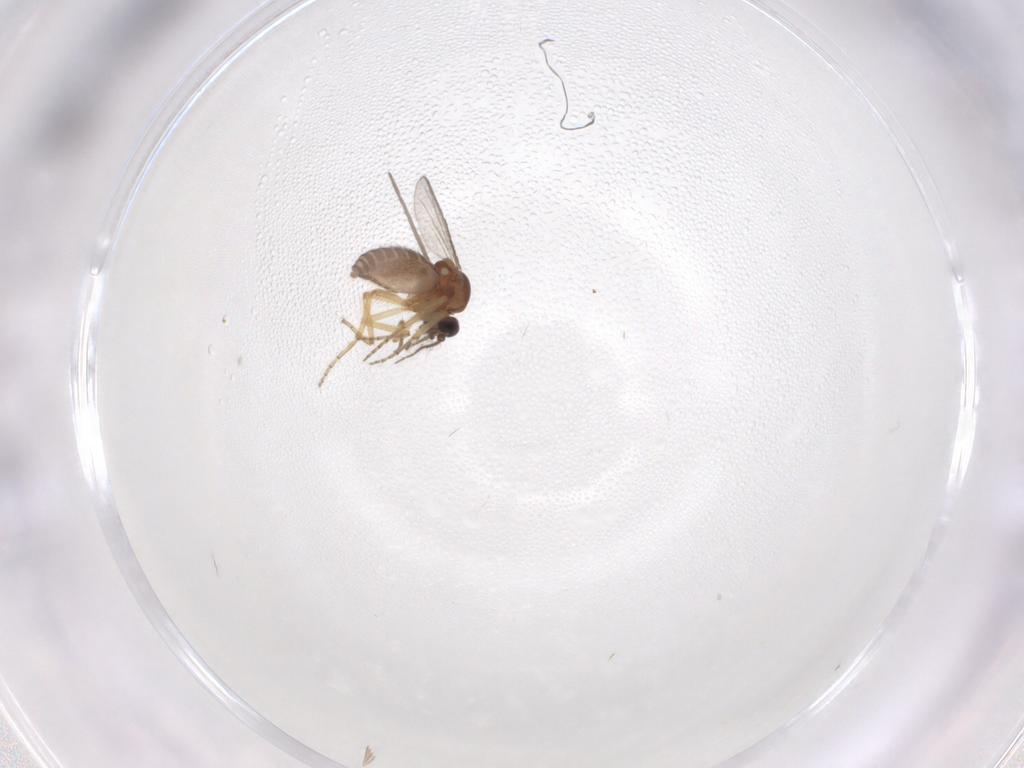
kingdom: Animalia
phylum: Arthropoda
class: Insecta
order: Diptera
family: Ceratopogonidae
